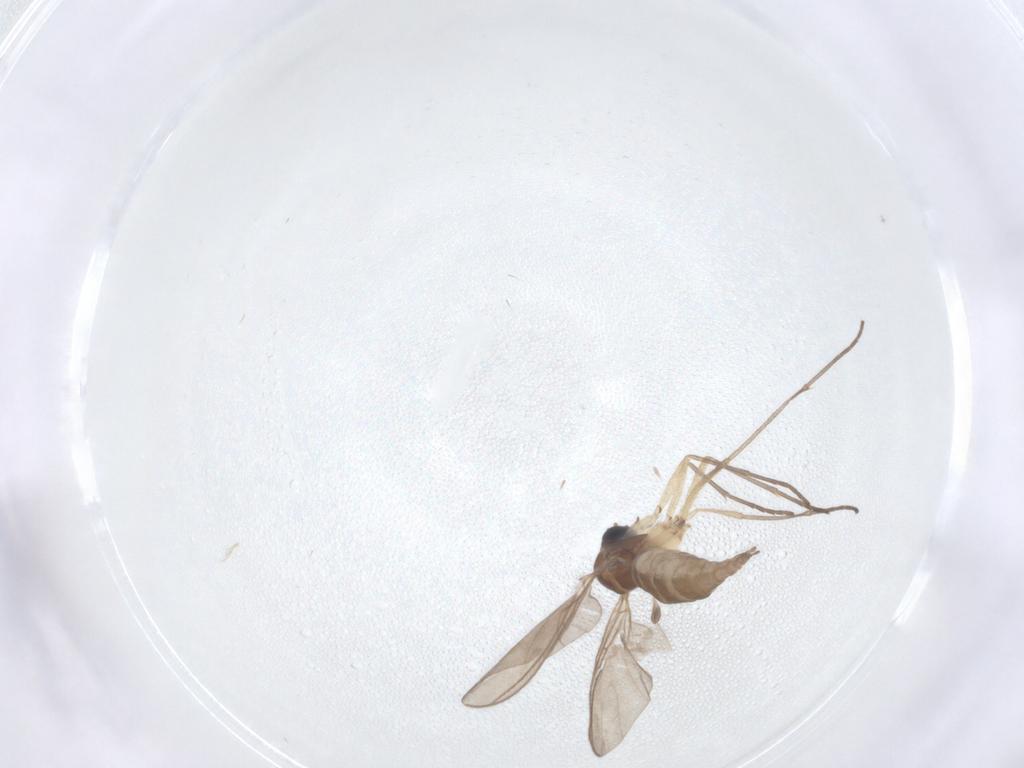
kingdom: Animalia
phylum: Arthropoda
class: Insecta
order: Diptera
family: Sciaridae
